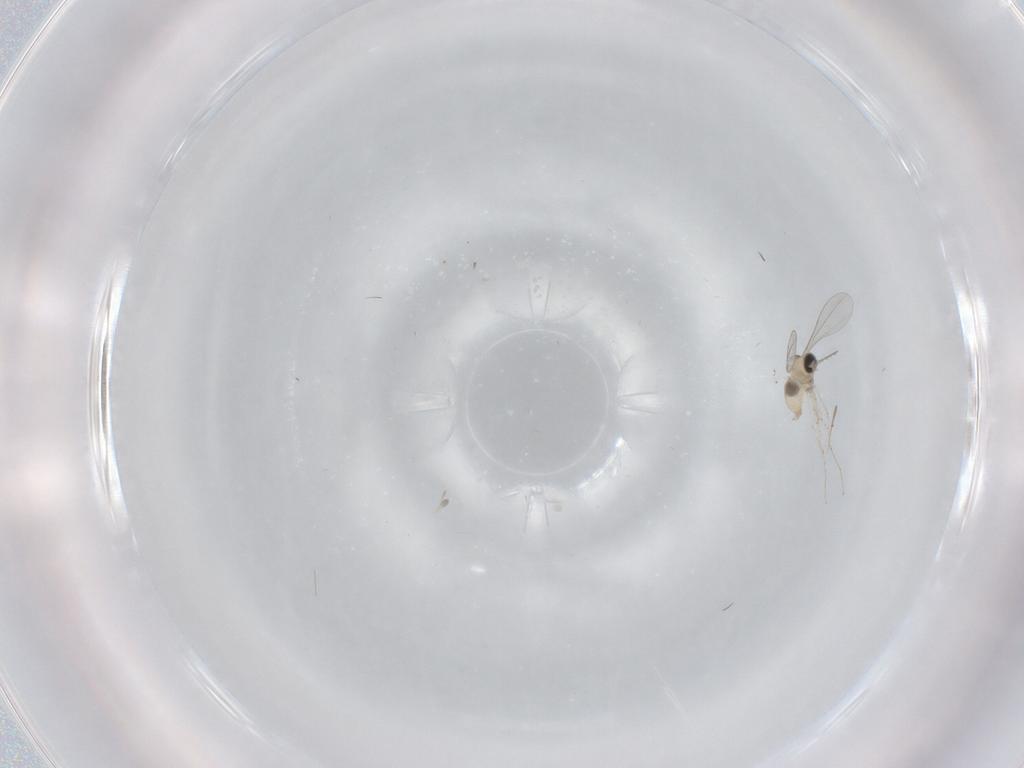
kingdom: Animalia
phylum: Arthropoda
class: Insecta
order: Diptera
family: Cecidomyiidae
